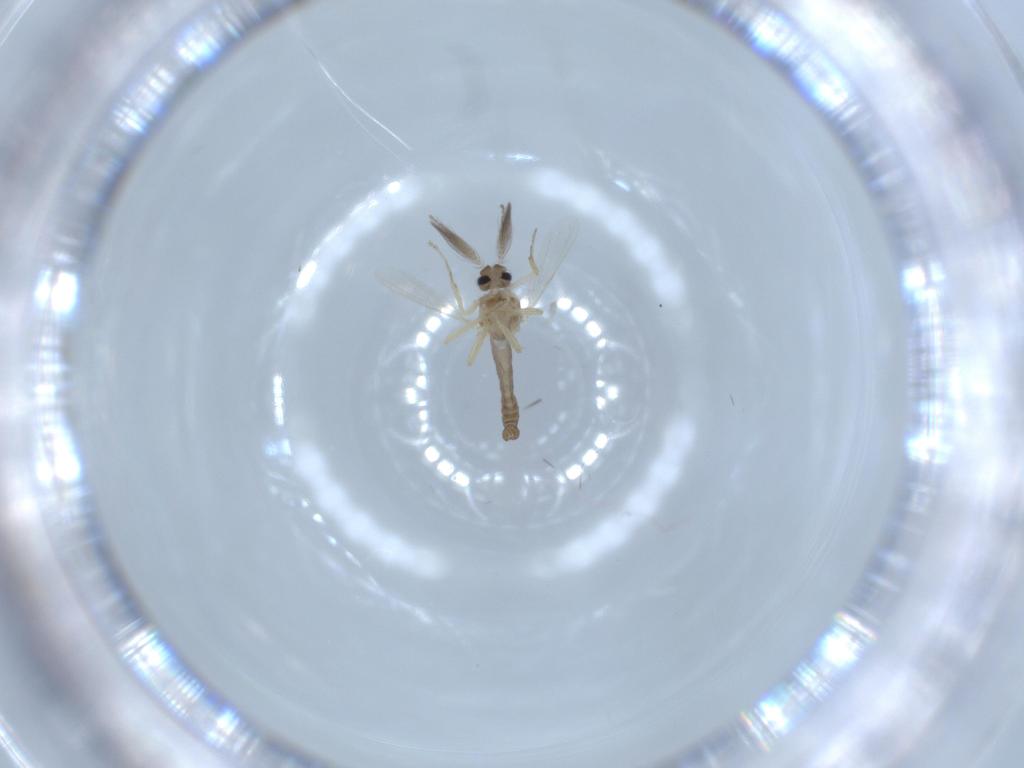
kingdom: Animalia
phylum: Arthropoda
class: Insecta
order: Diptera
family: Ceratopogonidae
